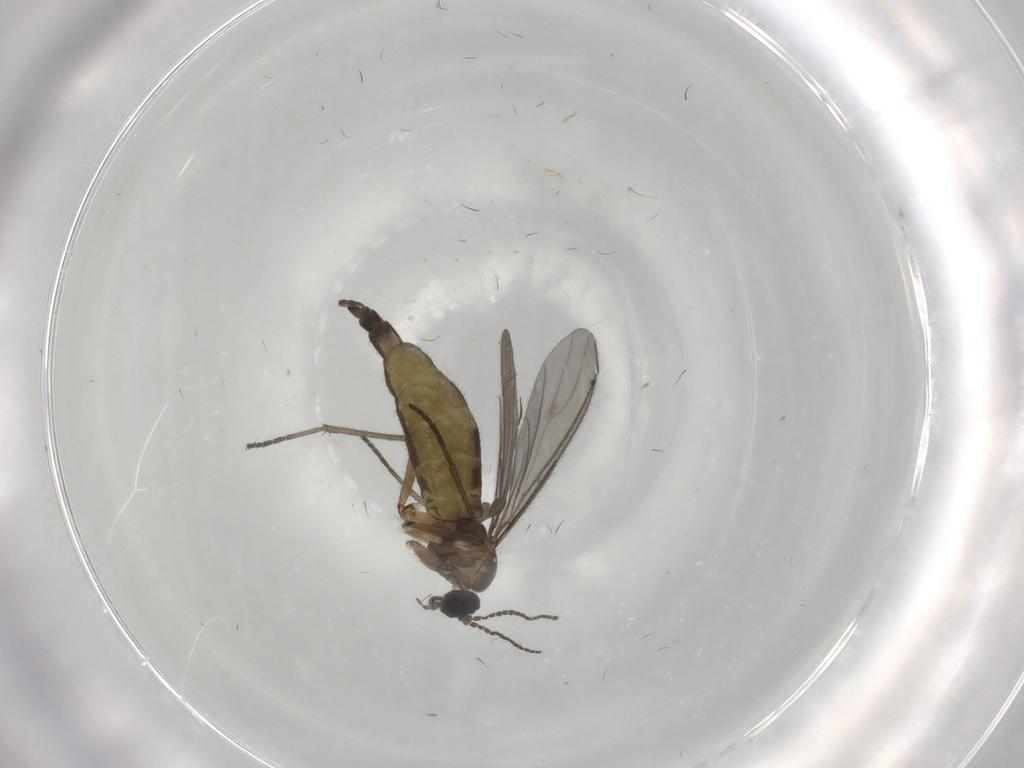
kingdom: Animalia
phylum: Arthropoda
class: Insecta
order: Diptera
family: Sciaridae
